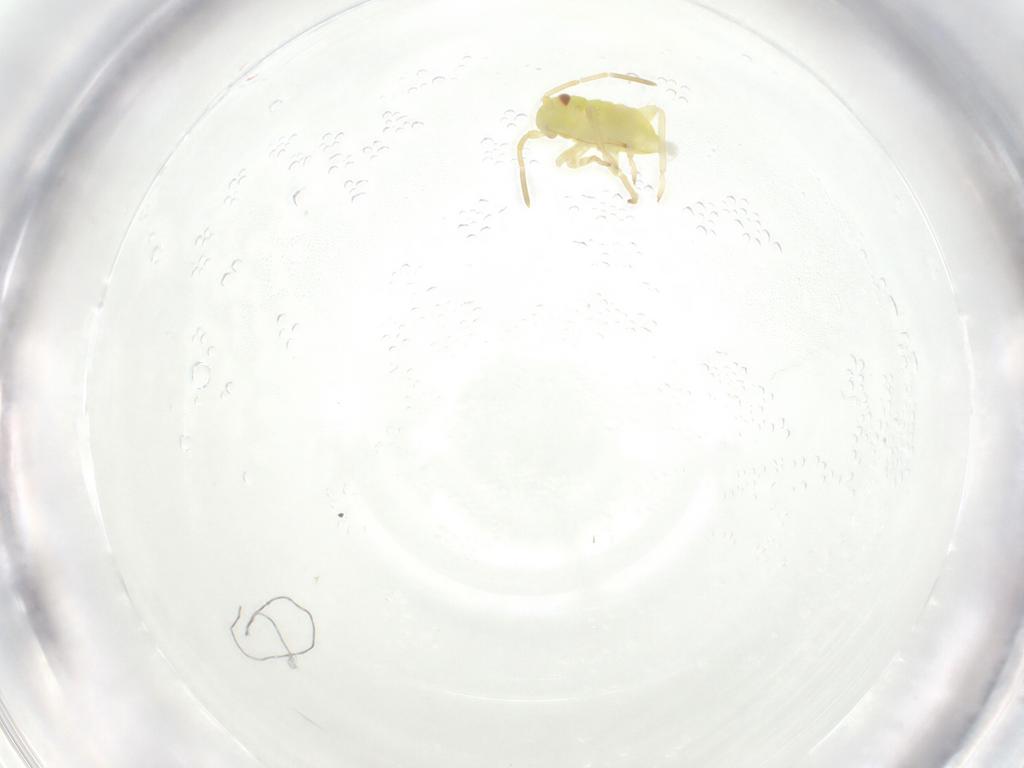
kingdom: Animalia
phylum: Arthropoda
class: Insecta
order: Hemiptera
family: Miridae
